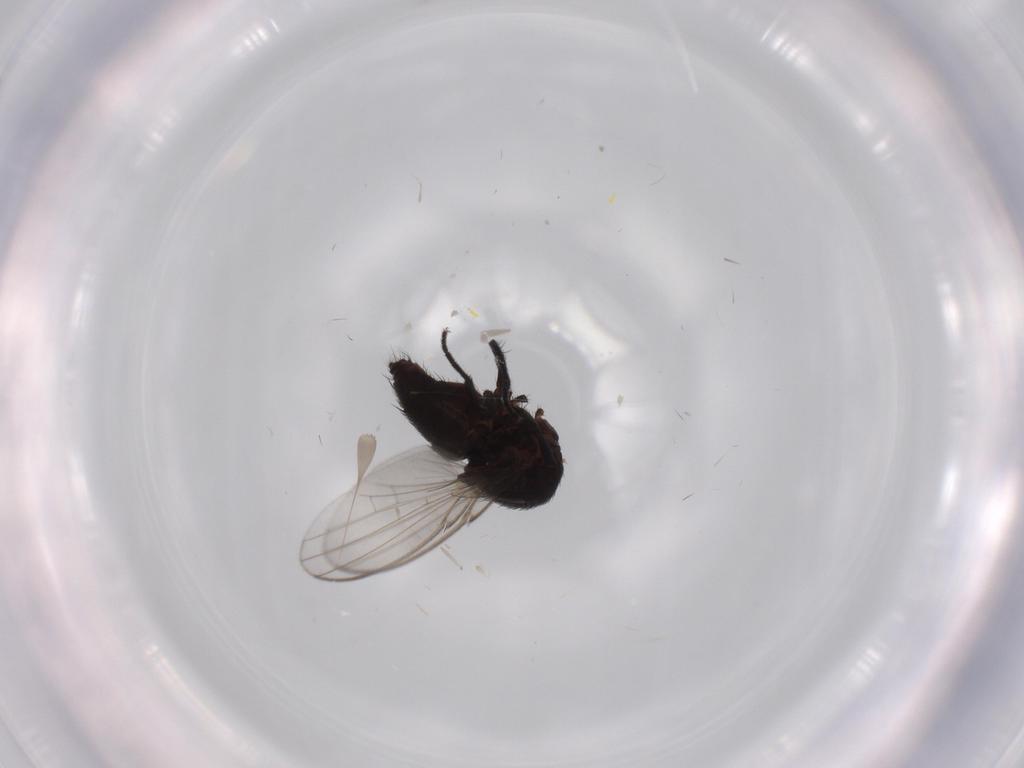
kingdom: Animalia
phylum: Arthropoda
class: Insecta
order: Diptera
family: Milichiidae
